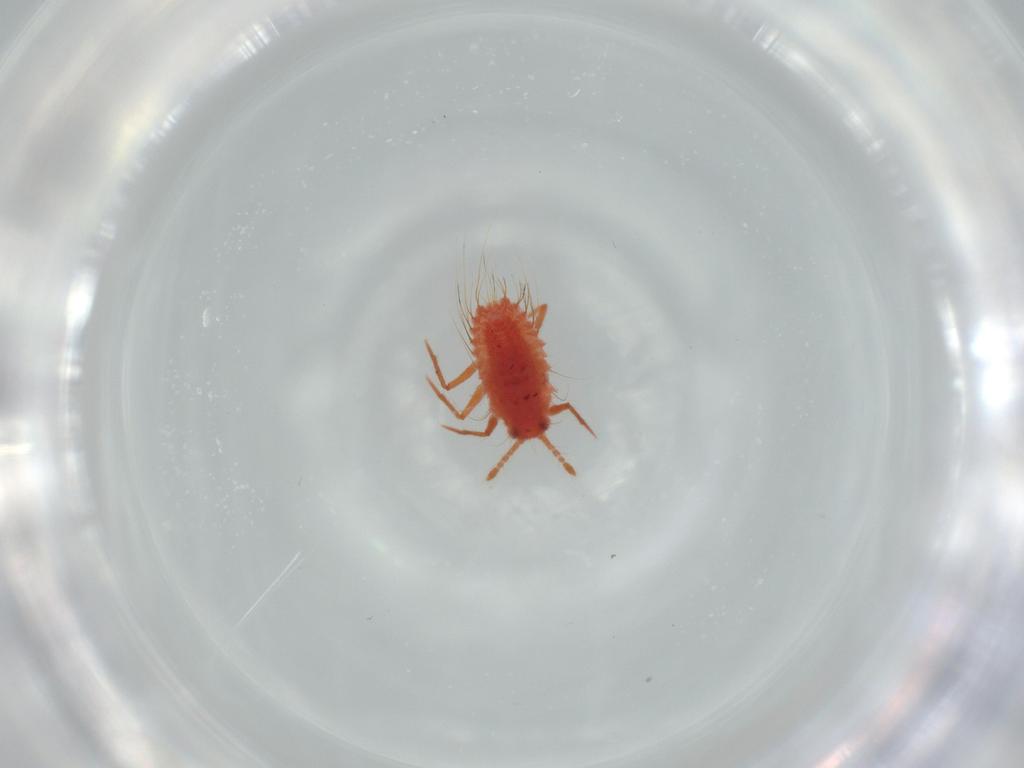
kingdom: Animalia
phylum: Arthropoda
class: Insecta
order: Hemiptera
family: Monophlebidae
